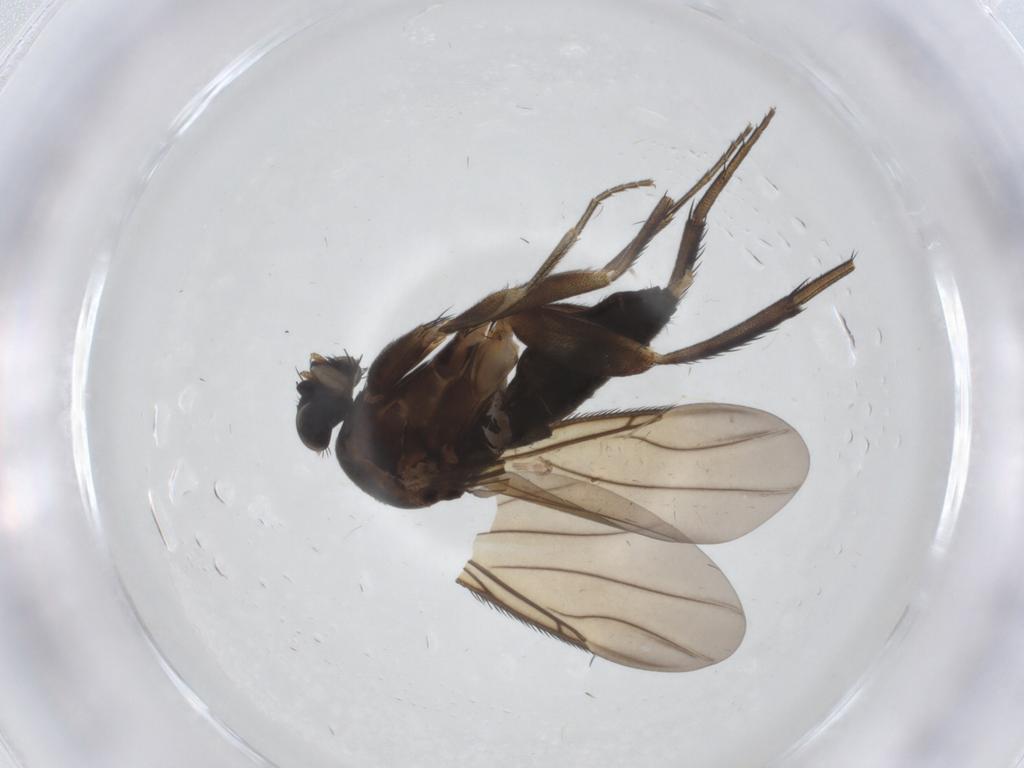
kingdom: Animalia
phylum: Arthropoda
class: Insecta
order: Diptera
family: Phoridae
